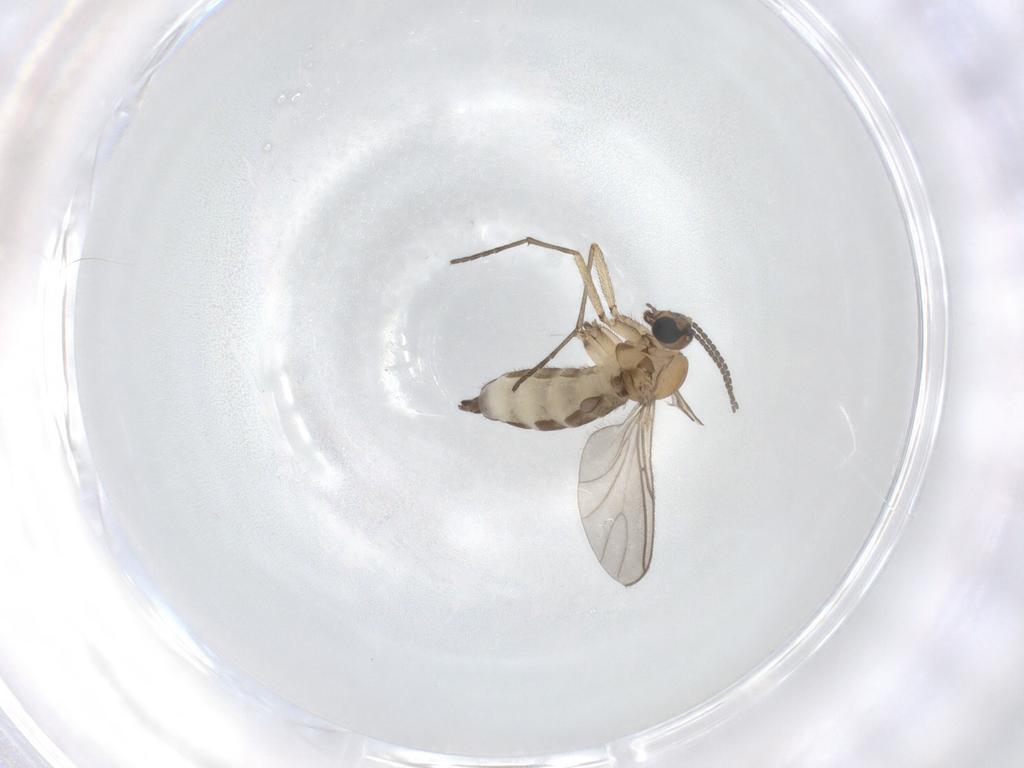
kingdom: Animalia
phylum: Arthropoda
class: Insecta
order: Diptera
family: Sciaridae
